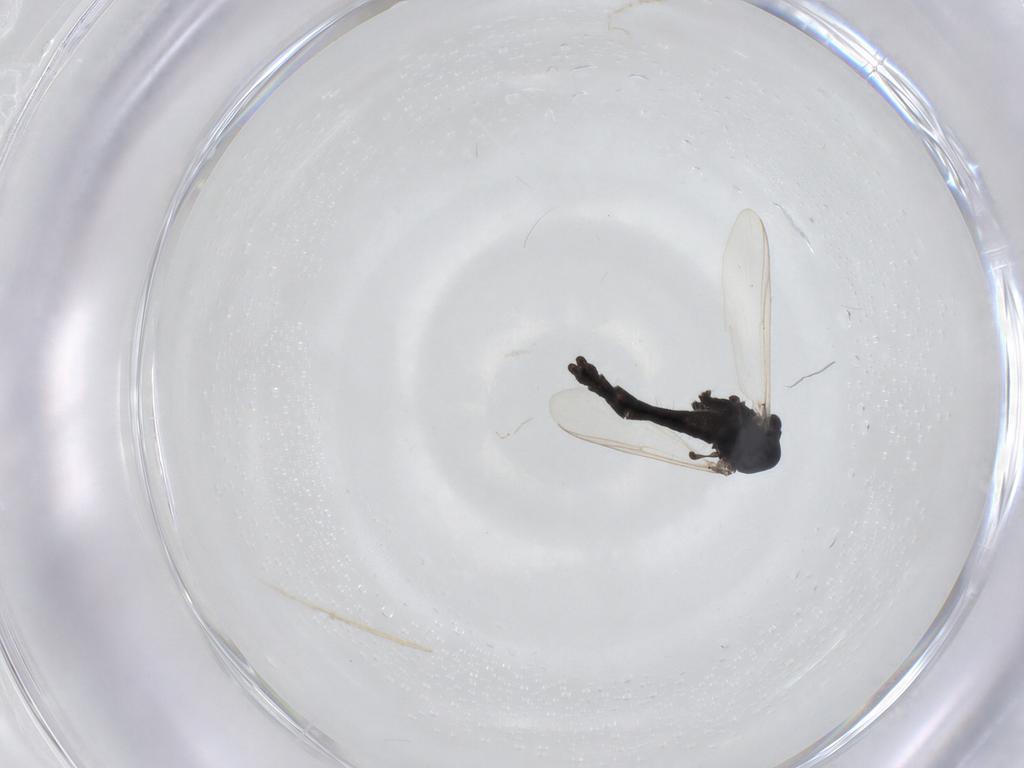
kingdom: Animalia
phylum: Arthropoda
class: Insecta
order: Diptera
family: Chironomidae
